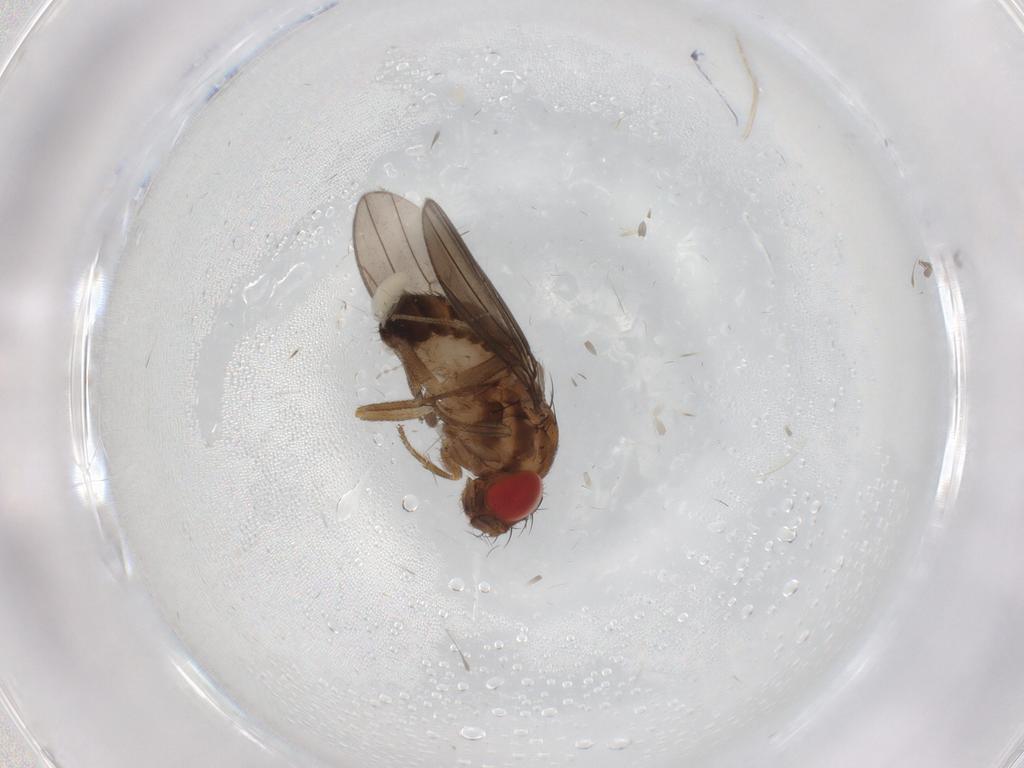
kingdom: Animalia
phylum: Arthropoda
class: Insecta
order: Diptera
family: Drosophilidae
